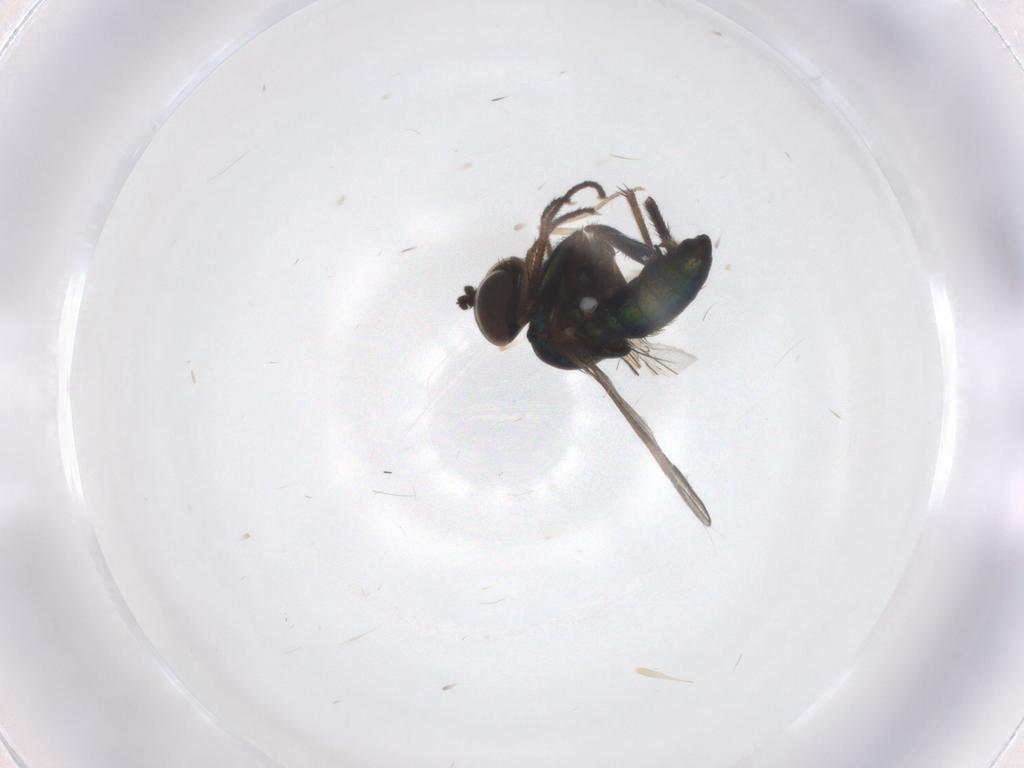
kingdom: Animalia
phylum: Arthropoda
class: Insecta
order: Diptera
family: Dolichopodidae
